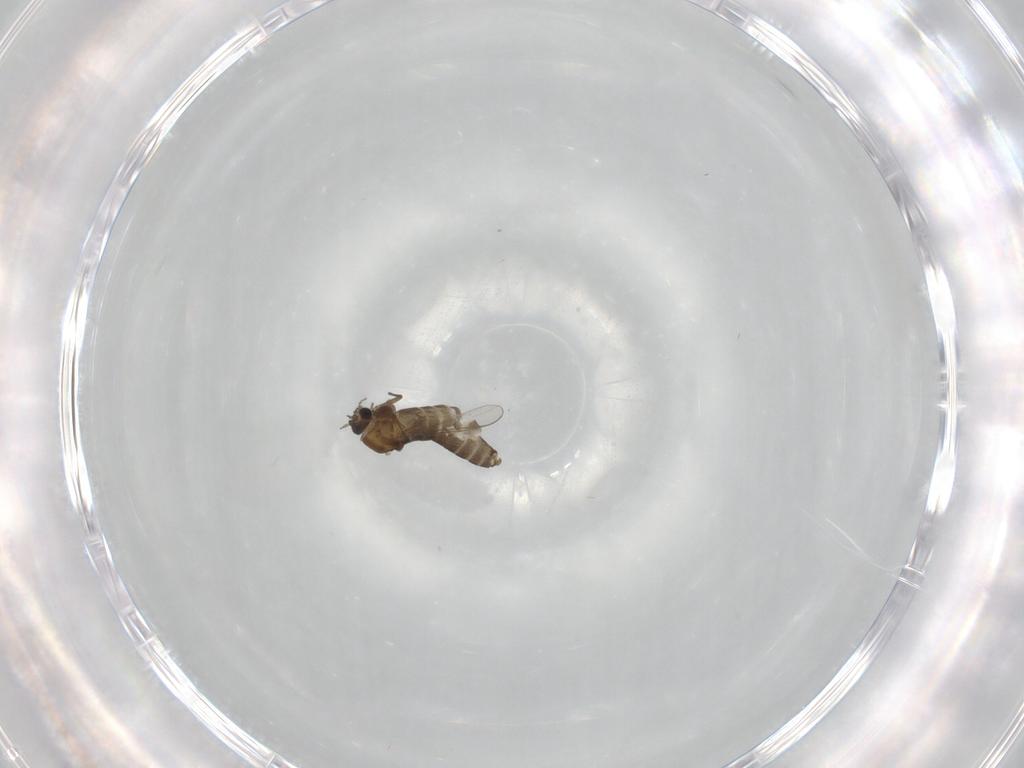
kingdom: Animalia
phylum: Arthropoda
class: Insecta
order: Diptera
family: Chironomidae
